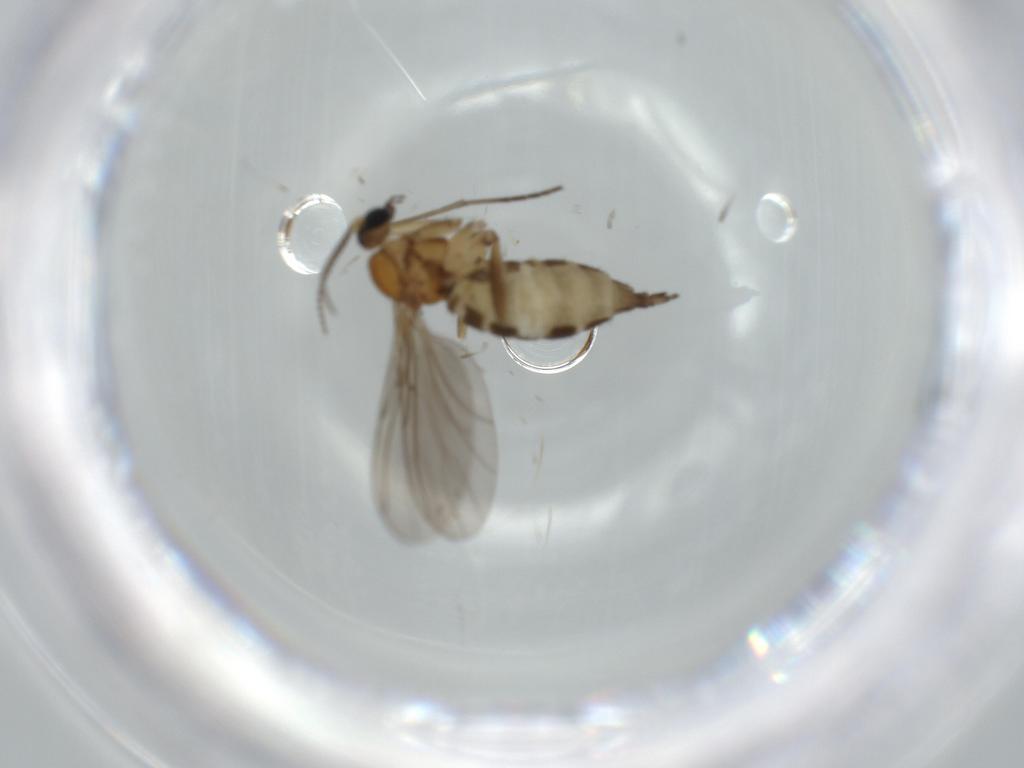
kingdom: Animalia
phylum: Arthropoda
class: Insecta
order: Diptera
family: Sciaridae
